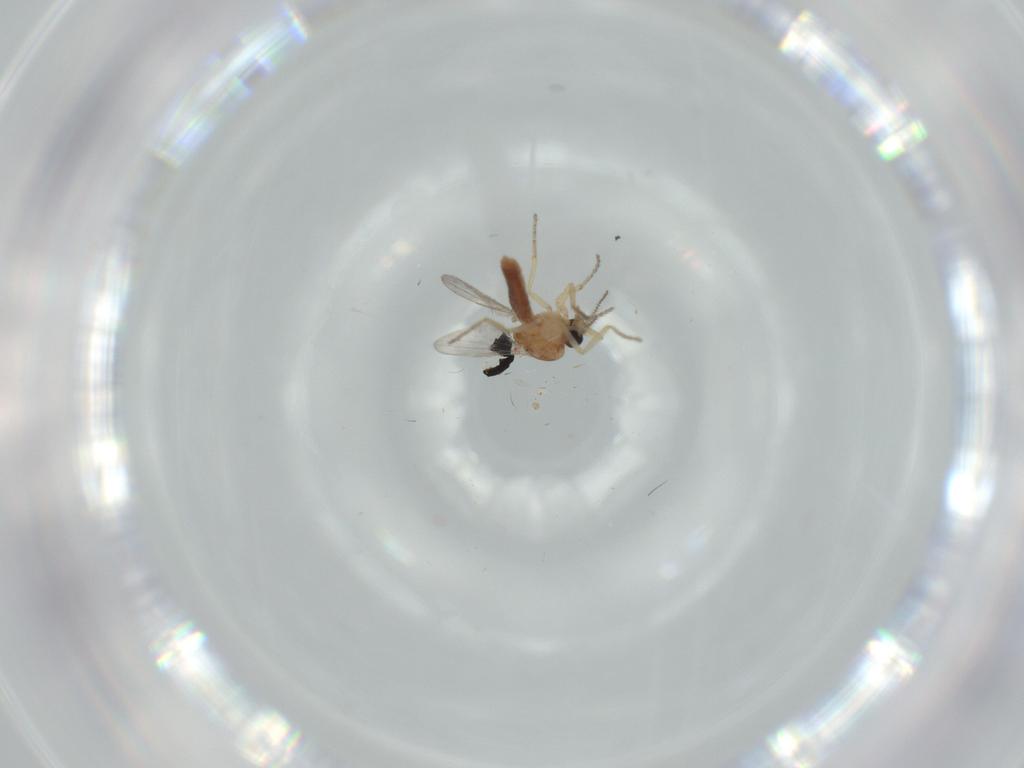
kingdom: Animalia
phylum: Arthropoda
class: Insecta
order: Diptera
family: Ceratopogonidae
